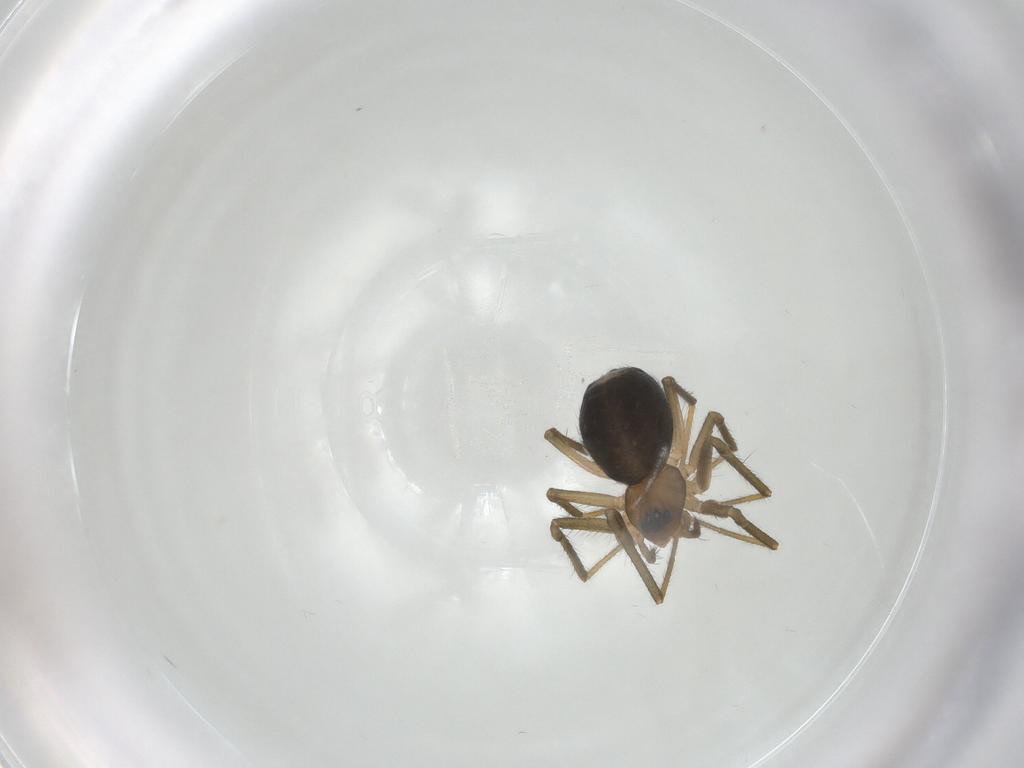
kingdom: Animalia
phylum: Arthropoda
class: Arachnida
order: Araneae
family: Linyphiidae
